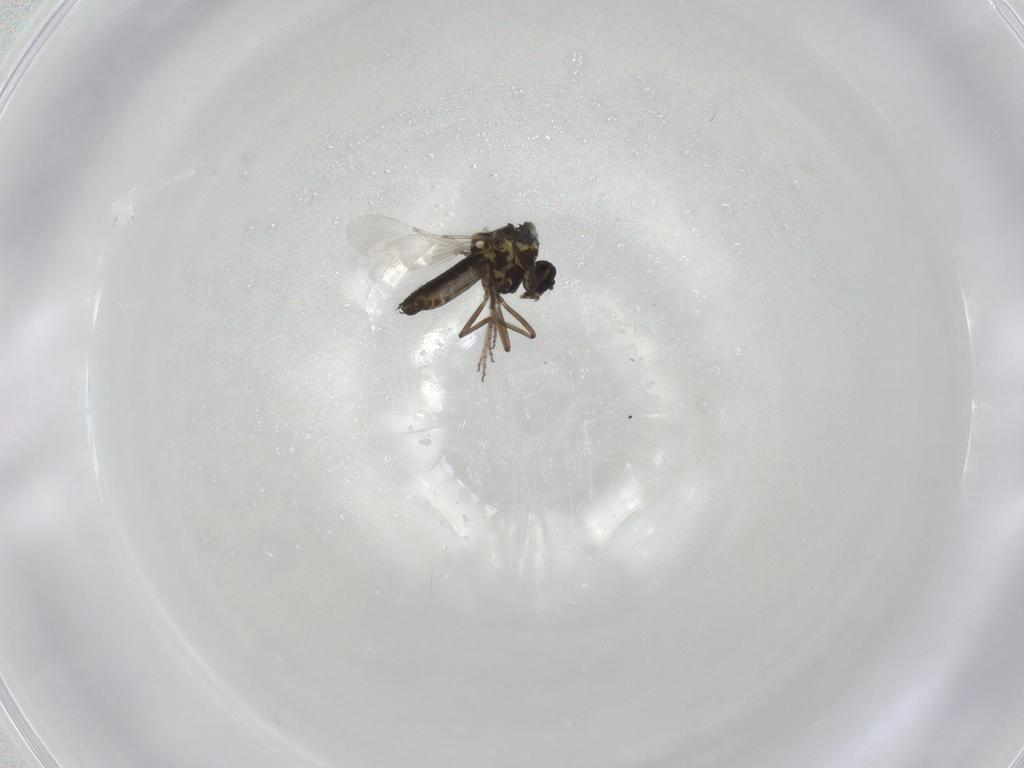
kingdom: Animalia
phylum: Arthropoda
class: Insecta
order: Diptera
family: Ceratopogonidae
